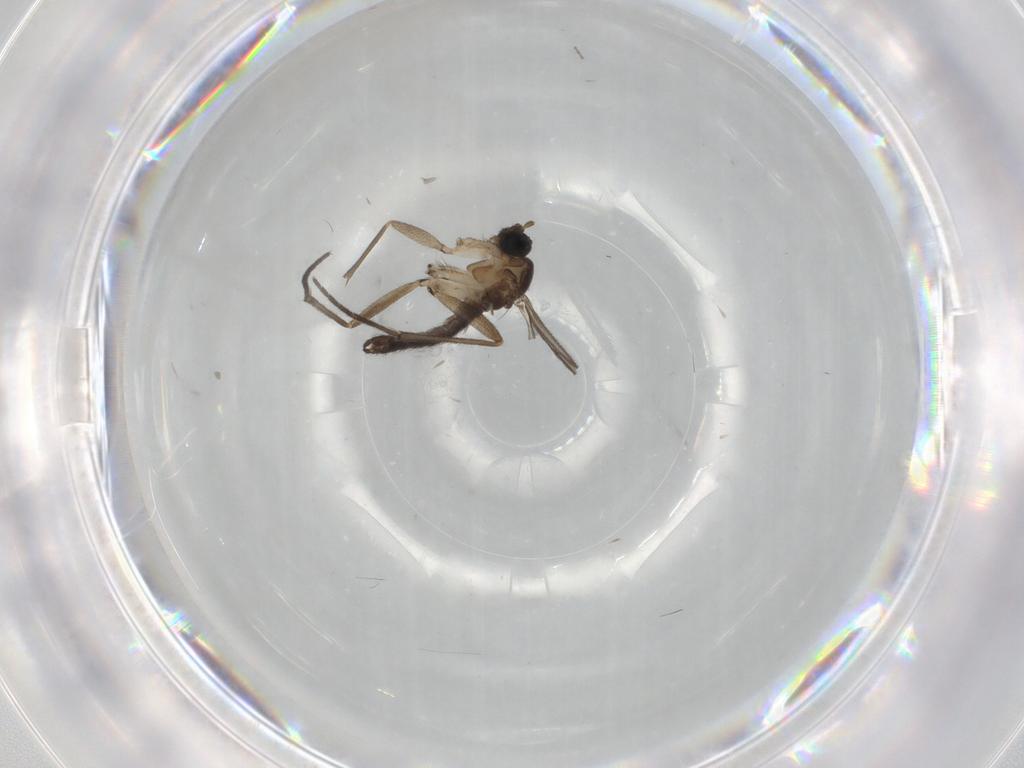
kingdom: Animalia
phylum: Arthropoda
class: Insecta
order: Diptera
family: Sciaridae
